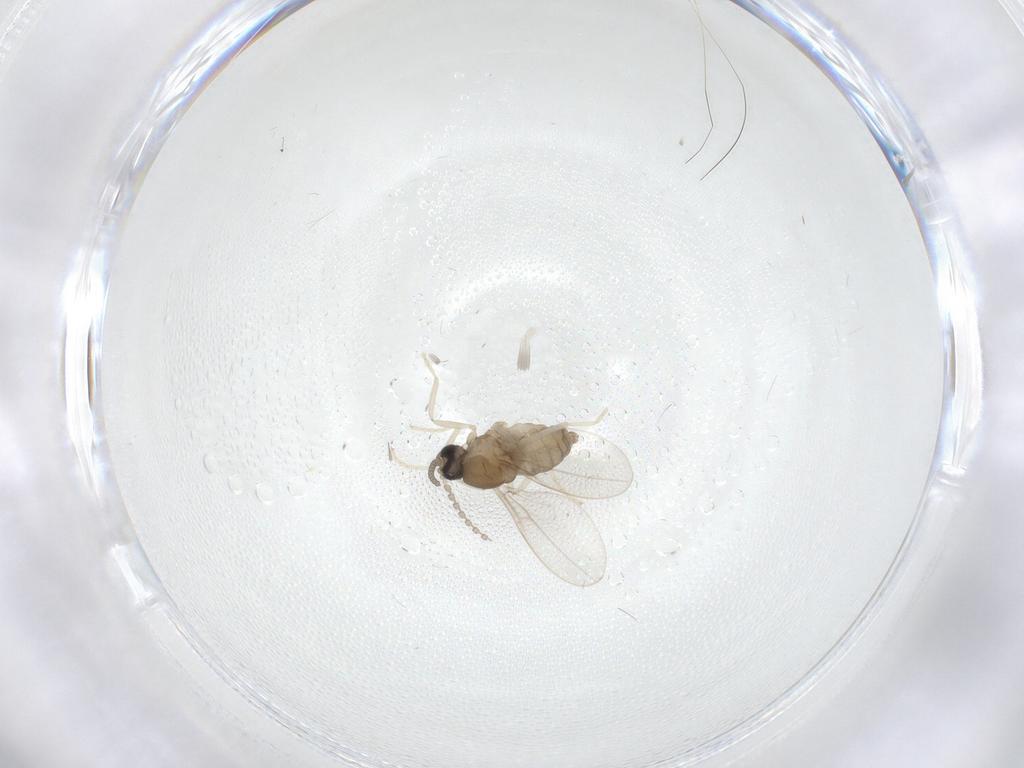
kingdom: Animalia
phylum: Arthropoda
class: Insecta
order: Diptera
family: Cecidomyiidae
